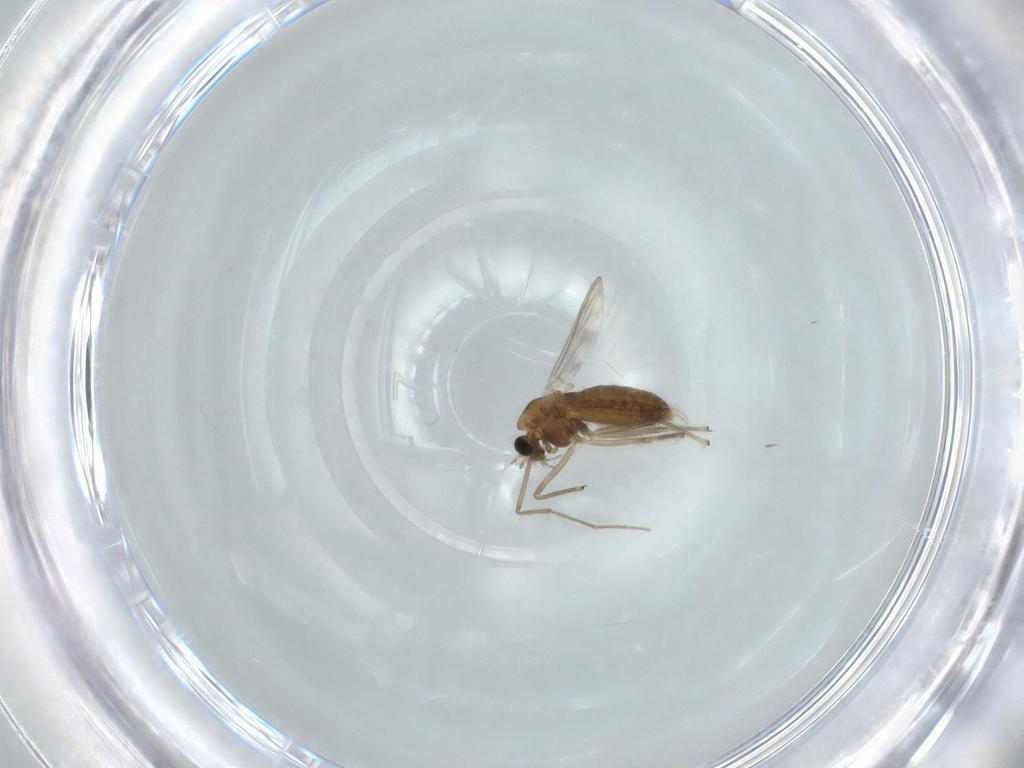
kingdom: Animalia
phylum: Arthropoda
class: Insecta
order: Diptera
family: Chironomidae
